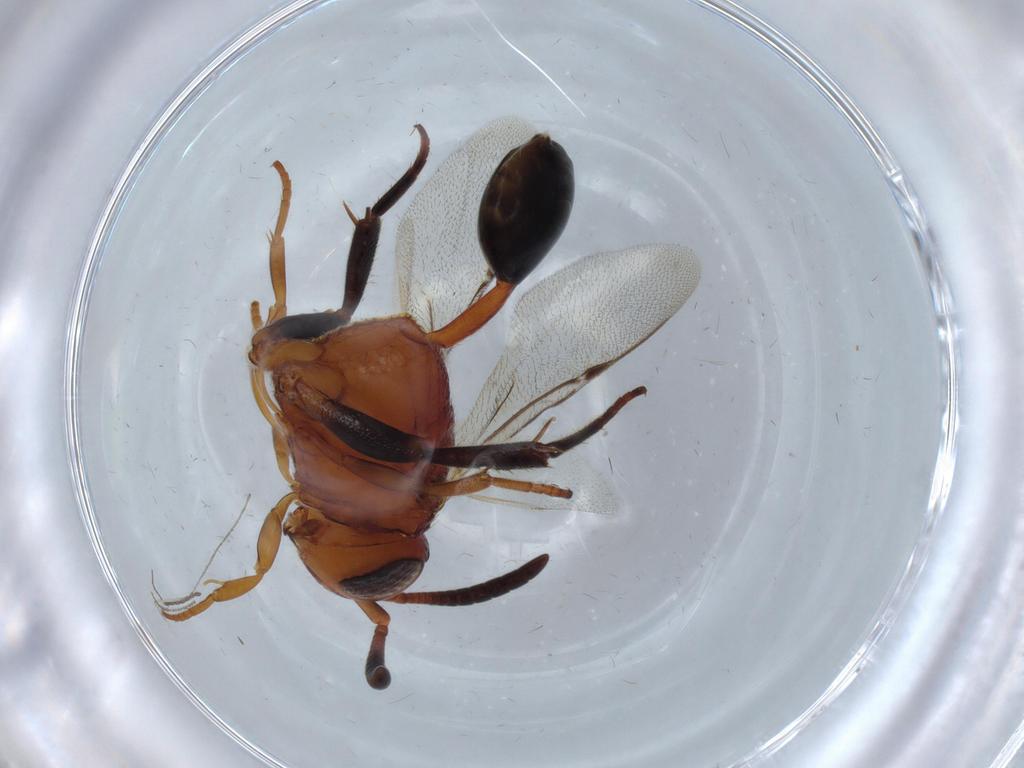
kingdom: Animalia
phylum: Arthropoda
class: Insecta
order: Hymenoptera
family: Evaniidae
